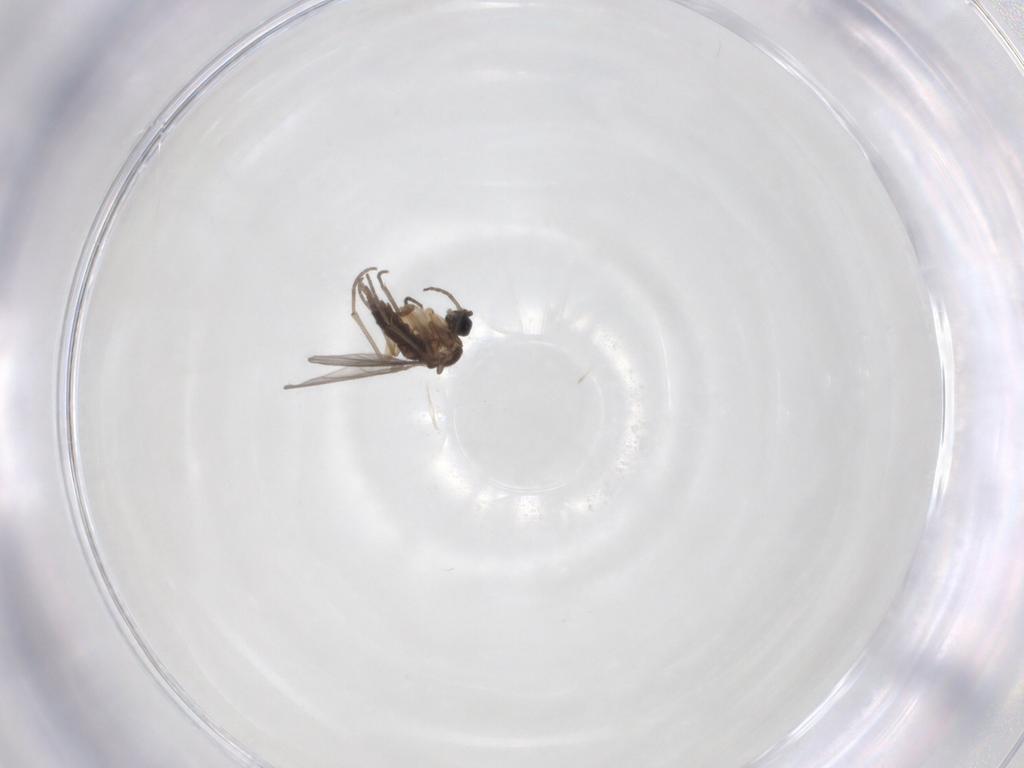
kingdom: Animalia
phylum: Arthropoda
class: Insecta
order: Diptera
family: Sciaridae
